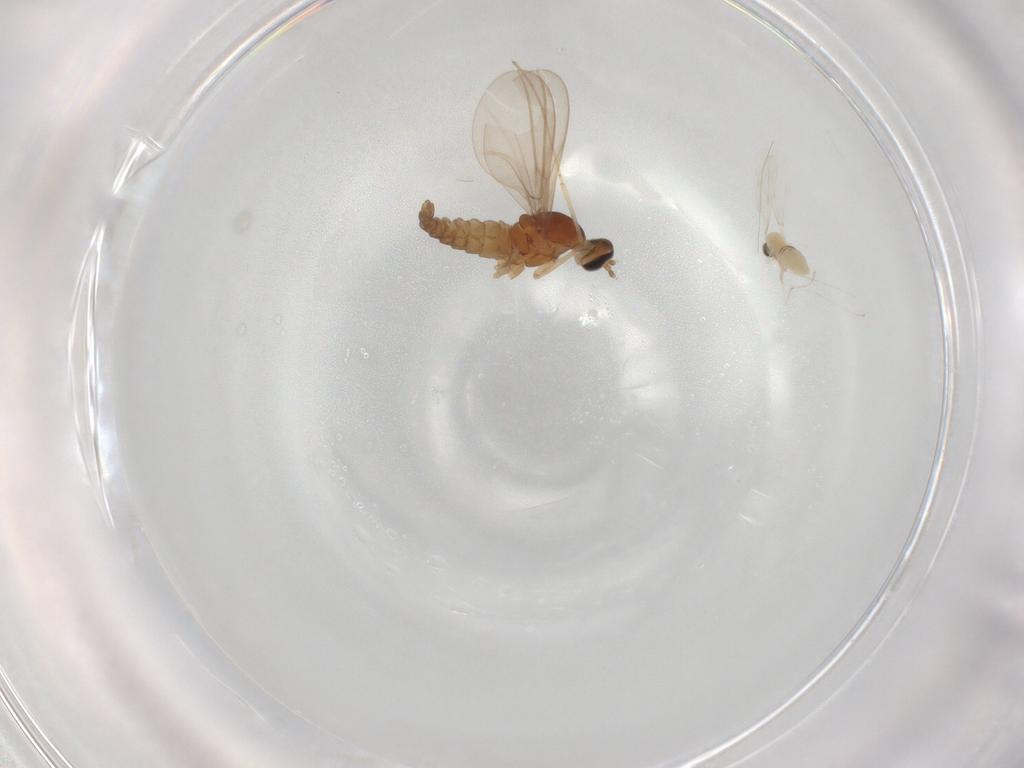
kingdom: Animalia
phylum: Arthropoda
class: Insecta
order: Diptera
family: Cecidomyiidae
